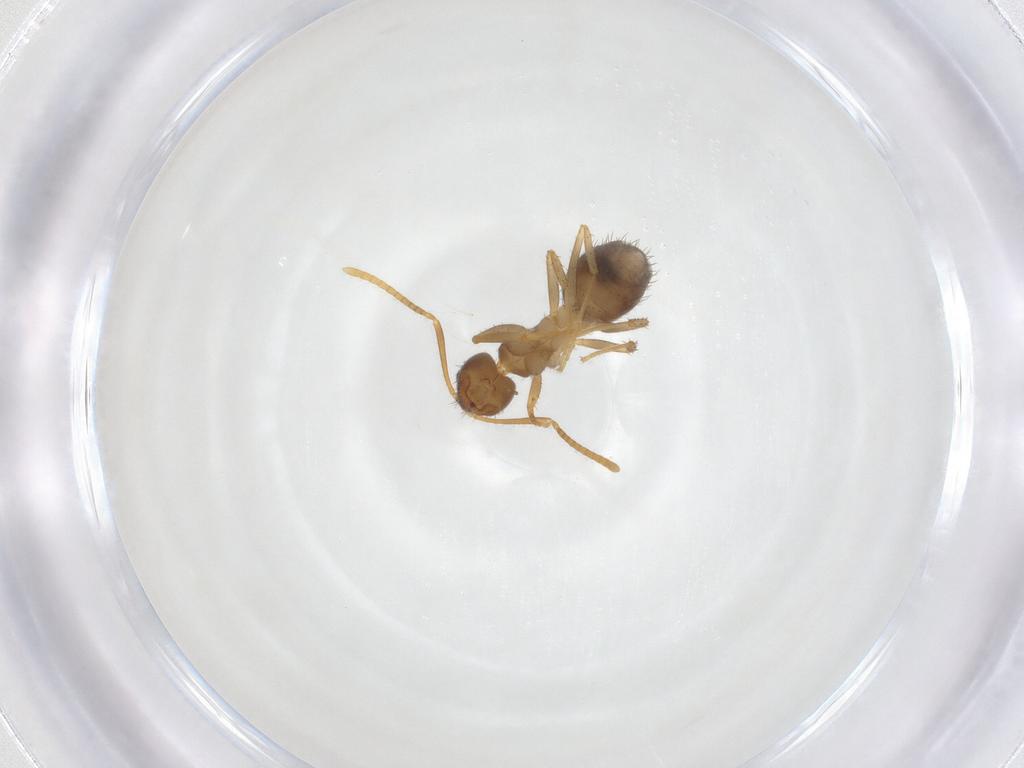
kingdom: Animalia
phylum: Arthropoda
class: Insecta
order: Hymenoptera
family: Formicidae
